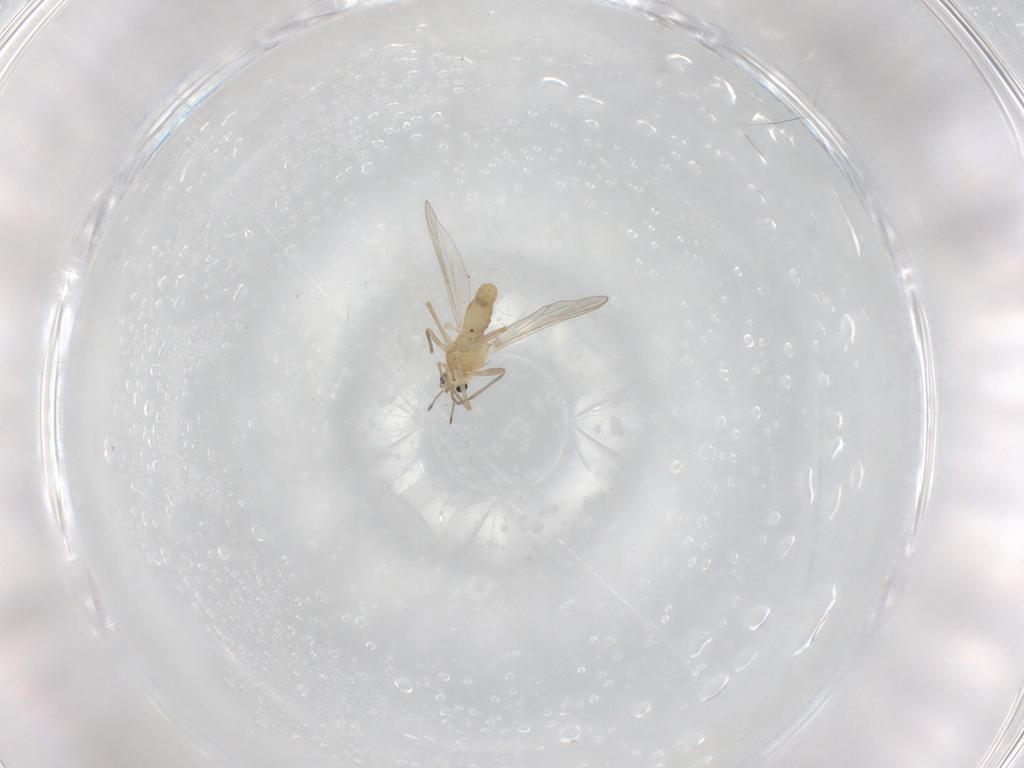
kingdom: Animalia
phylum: Arthropoda
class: Insecta
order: Diptera
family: Chironomidae
